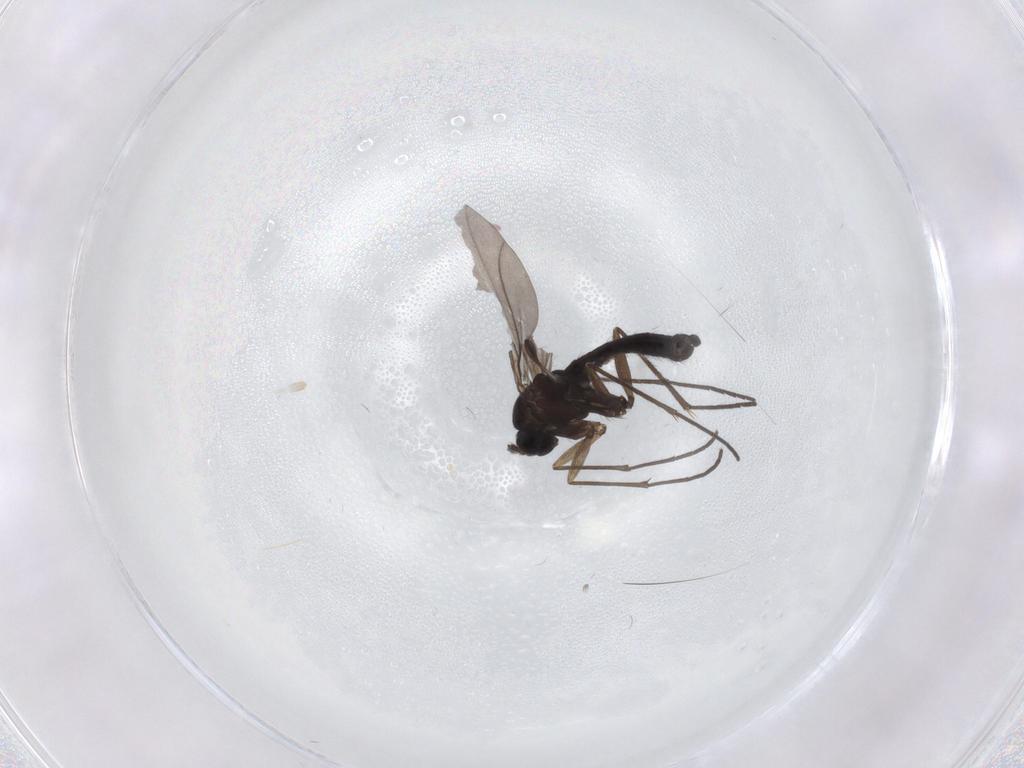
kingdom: Animalia
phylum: Arthropoda
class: Insecta
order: Diptera
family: Sciaridae
